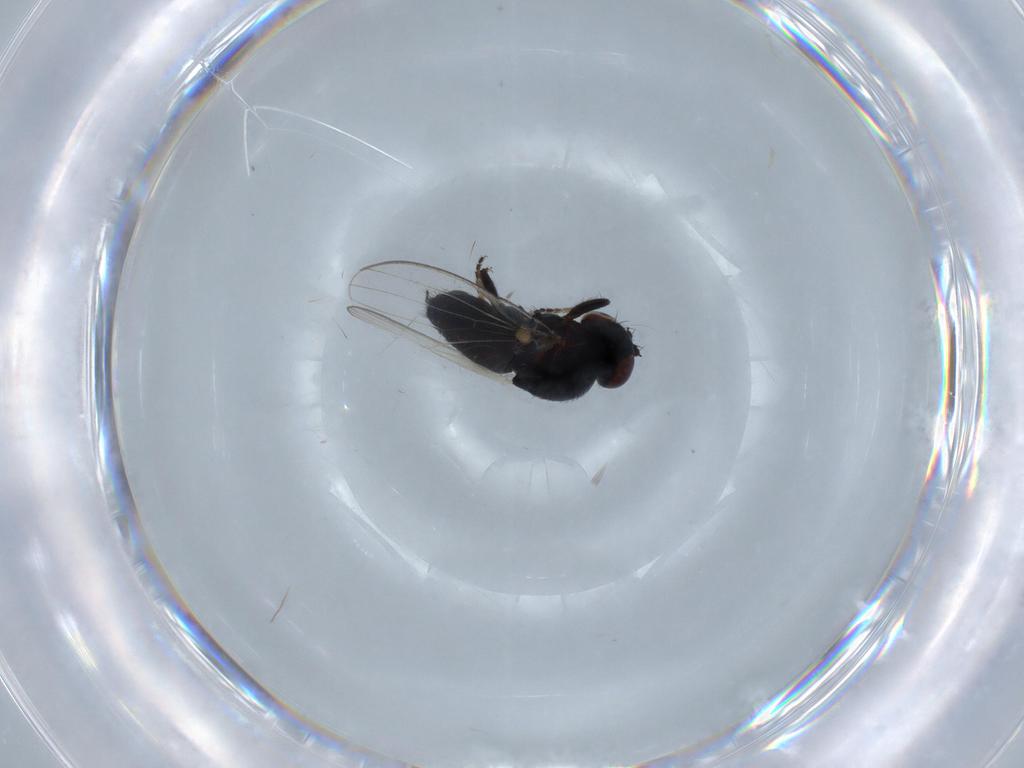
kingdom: Animalia
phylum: Arthropoda
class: Insecta
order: Diptera
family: Milichiidae
